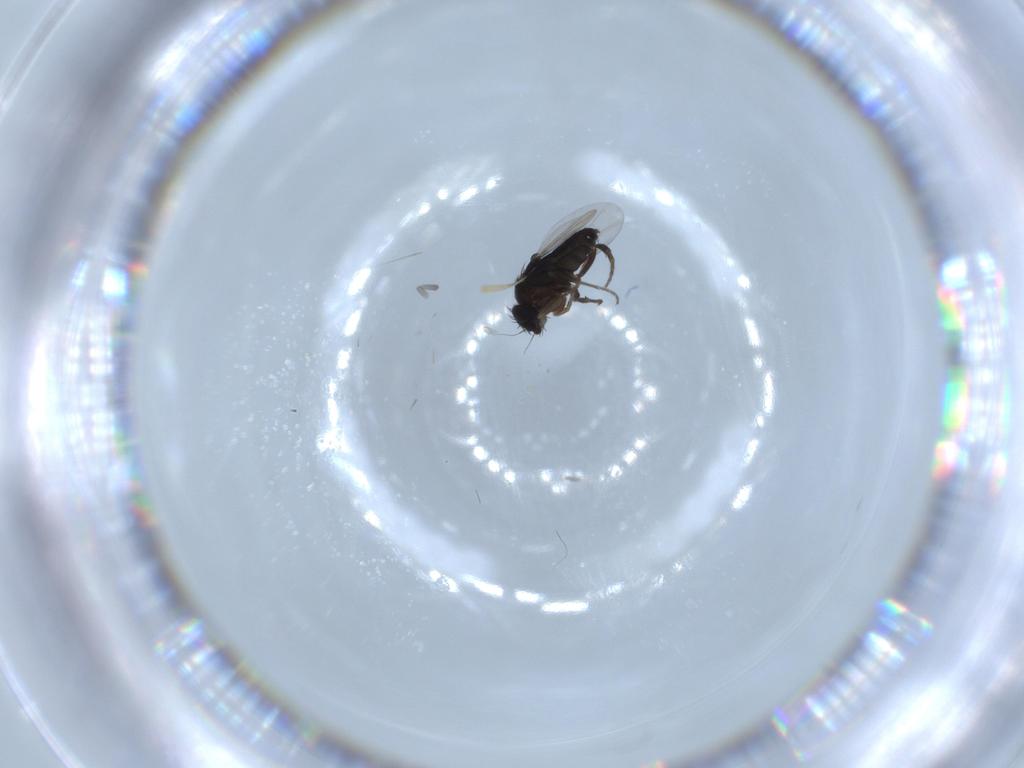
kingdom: Animalia
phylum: Arthropoda
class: Insecta
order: Diptera
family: Phoridae
